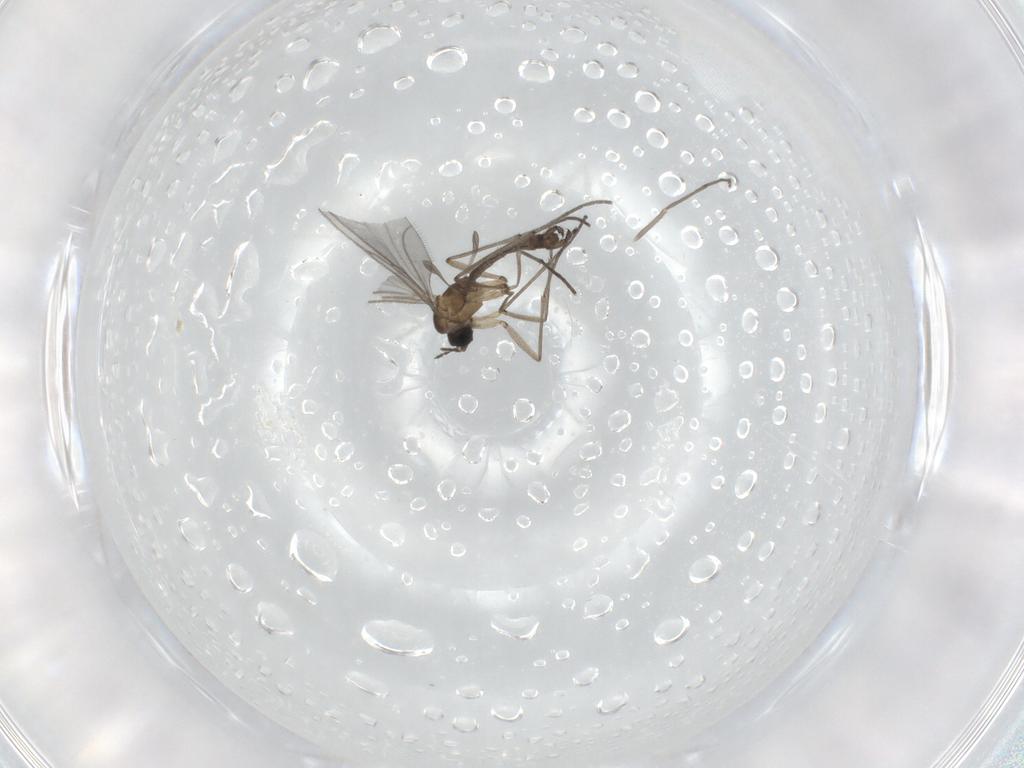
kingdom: Animalia
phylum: Arthropoda
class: Insecta
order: Diptera
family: Sciaridae
